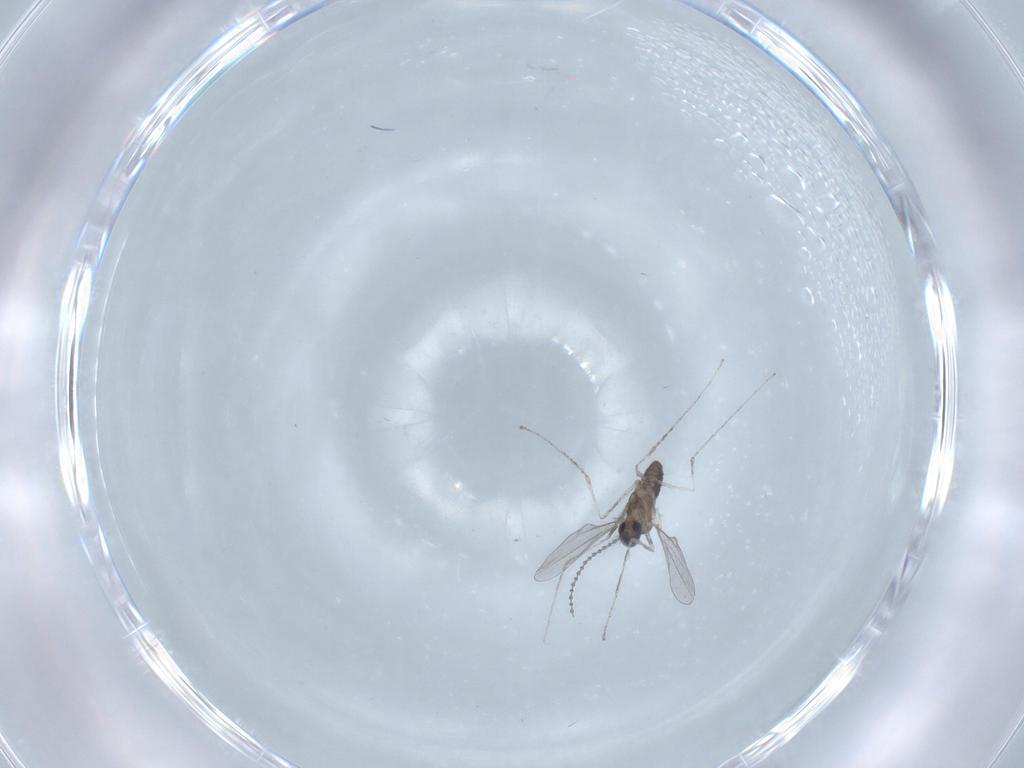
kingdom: Animalia
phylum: Arthropoda
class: Insecta
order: Diptera
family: Cecidomyiidae
